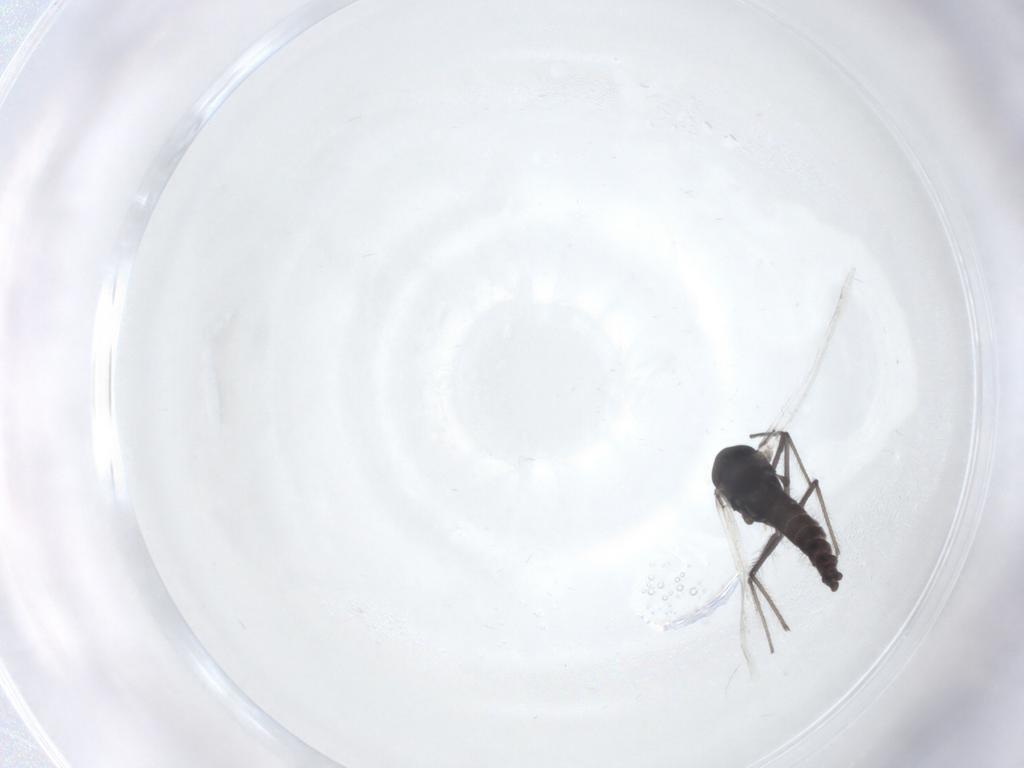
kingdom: Animalia
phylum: Arthropoda
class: Insecta
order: Diptera
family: Chironomidae
